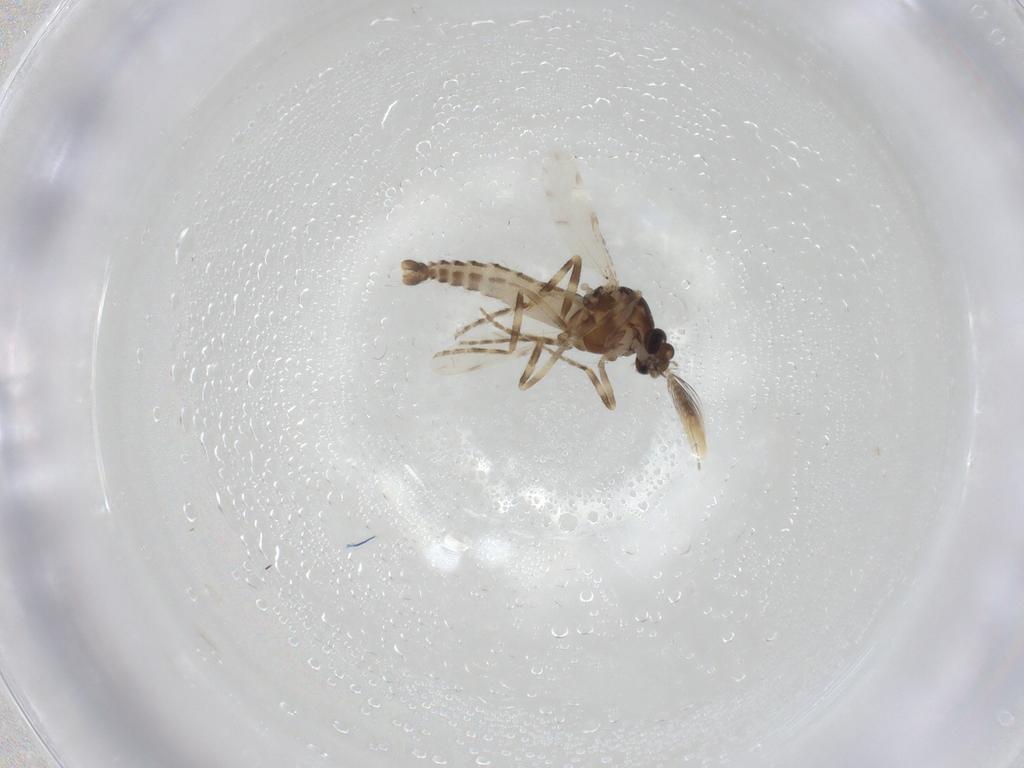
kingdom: Animalia
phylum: Arthropoda
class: Insecta
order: Diptera
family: Ceratopogonidae
